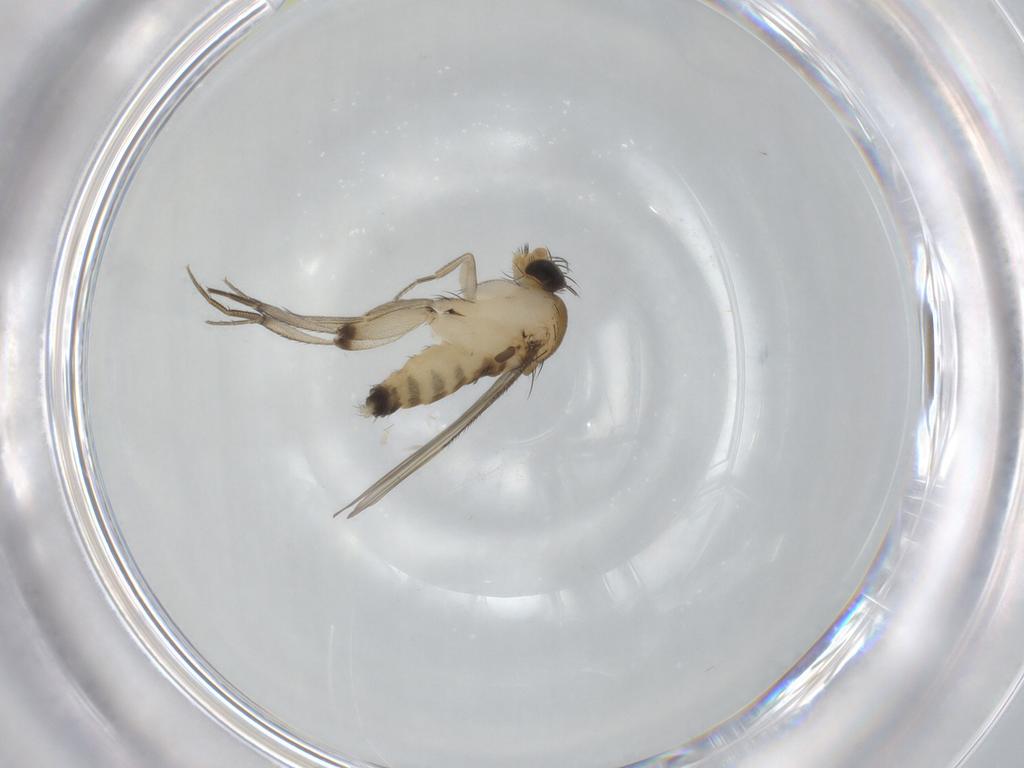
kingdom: Animalia
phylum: Arthropoda
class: Insecta
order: Diptera
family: Phoridae
